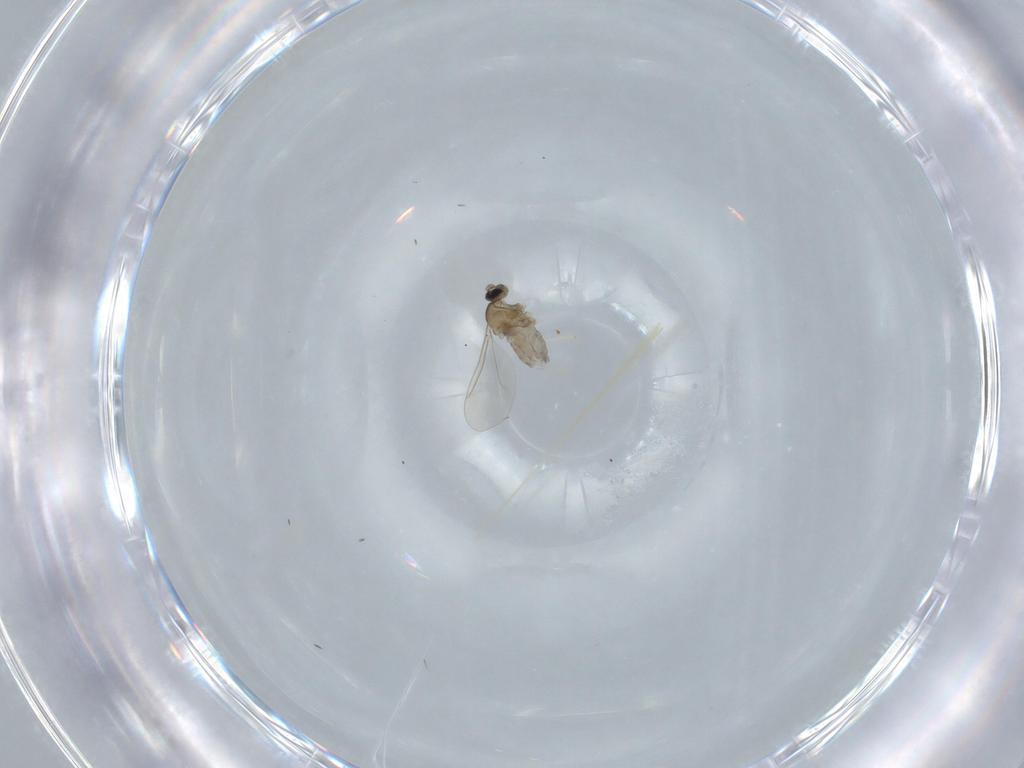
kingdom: Animalia
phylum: Arthropoda
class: Insecta
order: Diptera
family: Cecidomyiidae
